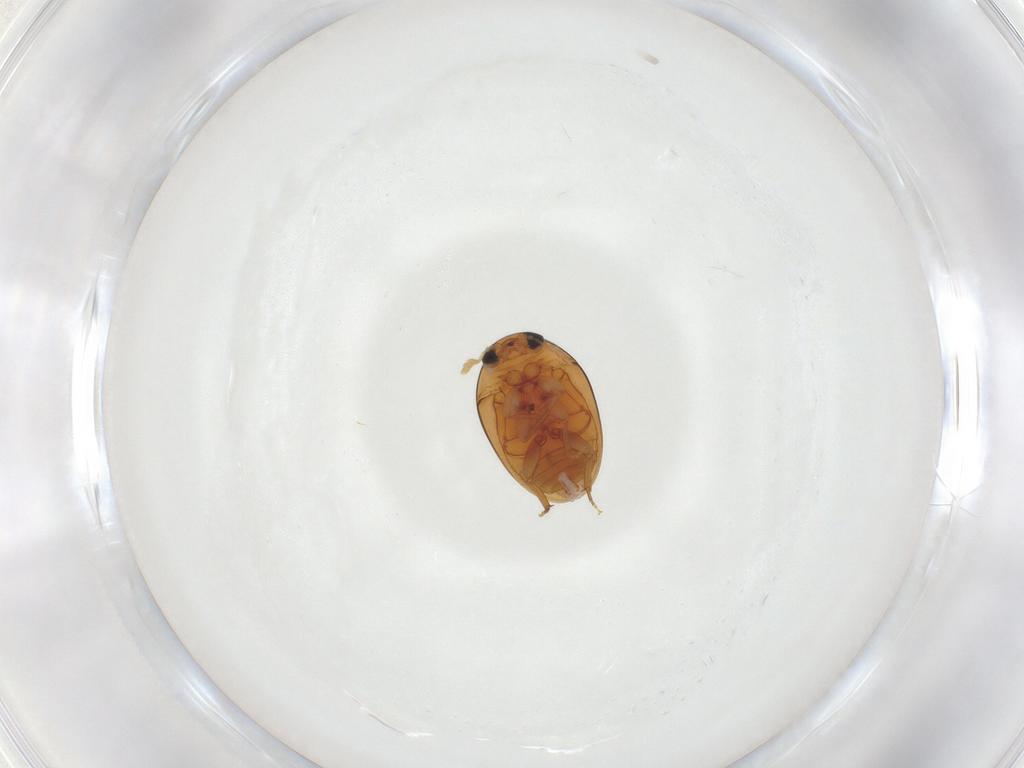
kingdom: Animalia
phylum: Arthropoda
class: Insecta
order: Coleoptera
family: Phalacridae
